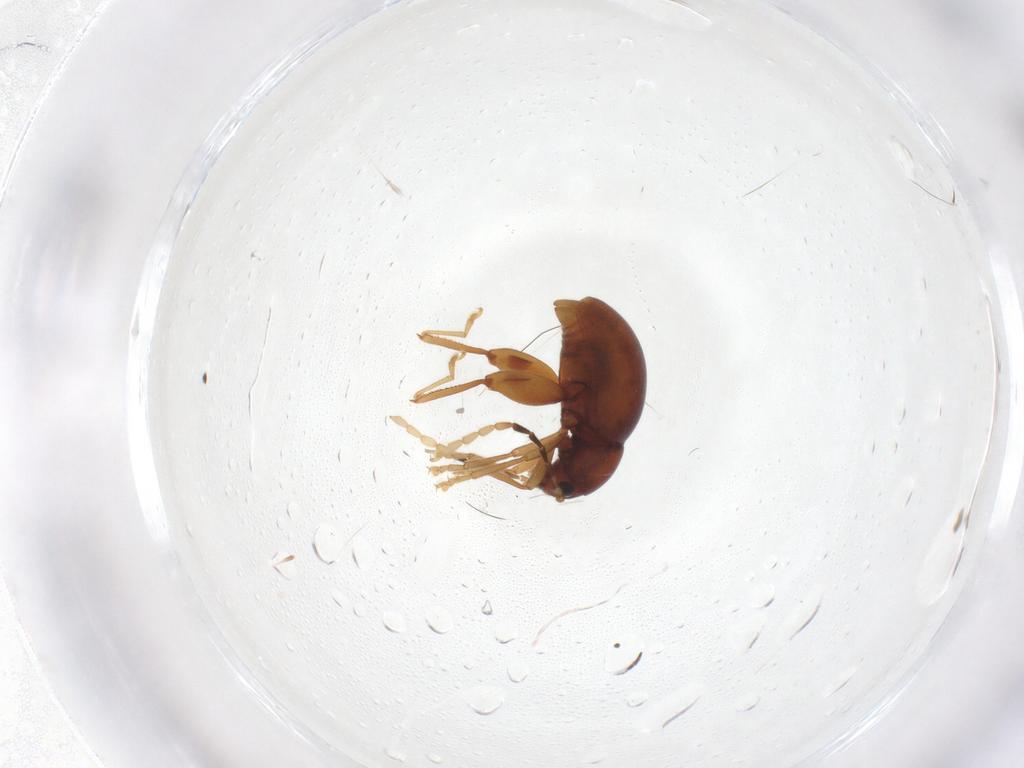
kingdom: Animalia
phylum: Arthropoda
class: Insecta
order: Coleoptera
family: Chrysomelidae
